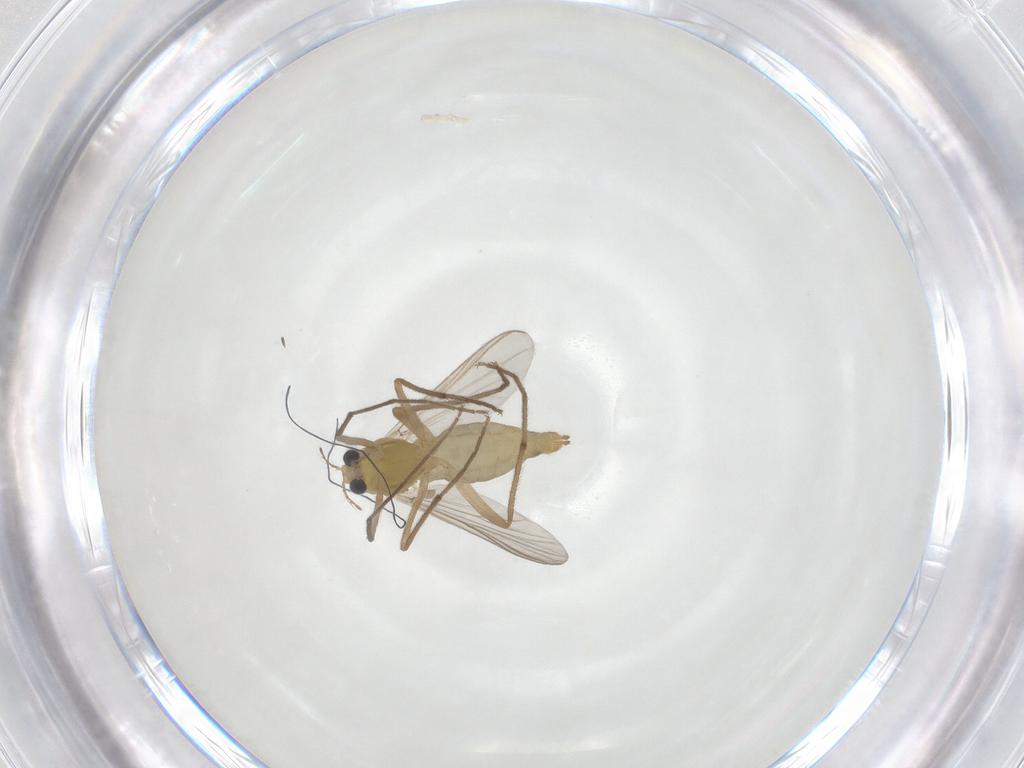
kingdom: Animalia
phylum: Arthropoda
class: Insecta
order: Diptera
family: Chironomidae
